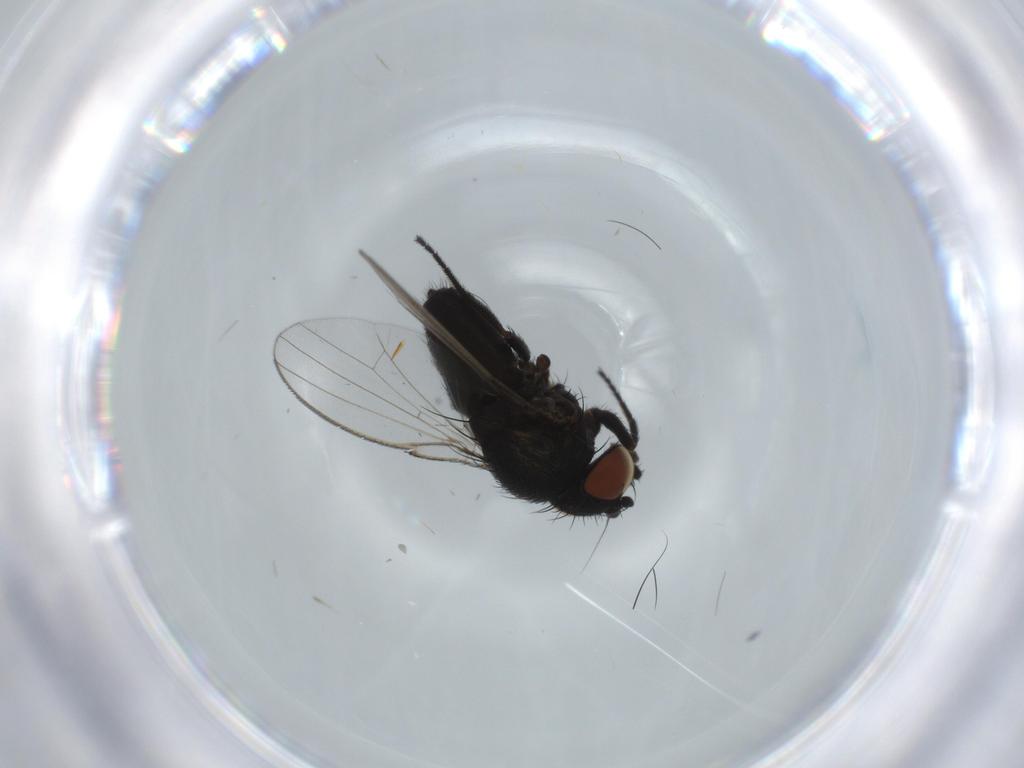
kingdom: Animalia
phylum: Arthropoda
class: Insecta
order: Diptera
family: Milichiidae
